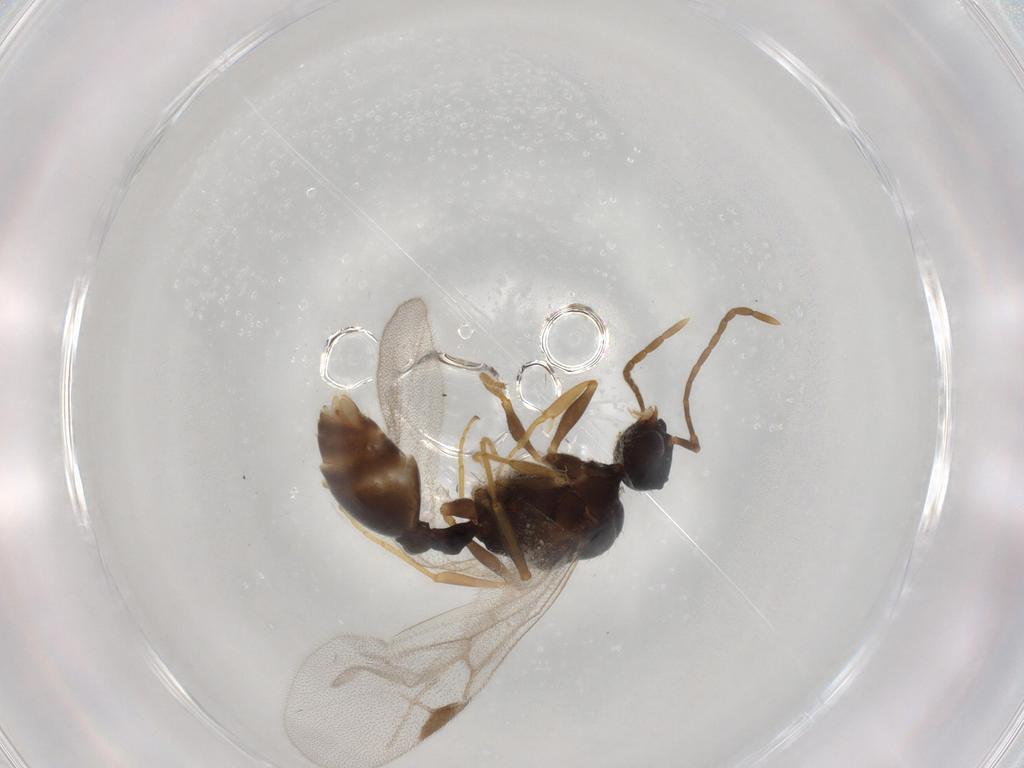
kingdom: Animalia
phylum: Arthropoda
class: Insecta
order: Hymenoptera
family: Formicidae
